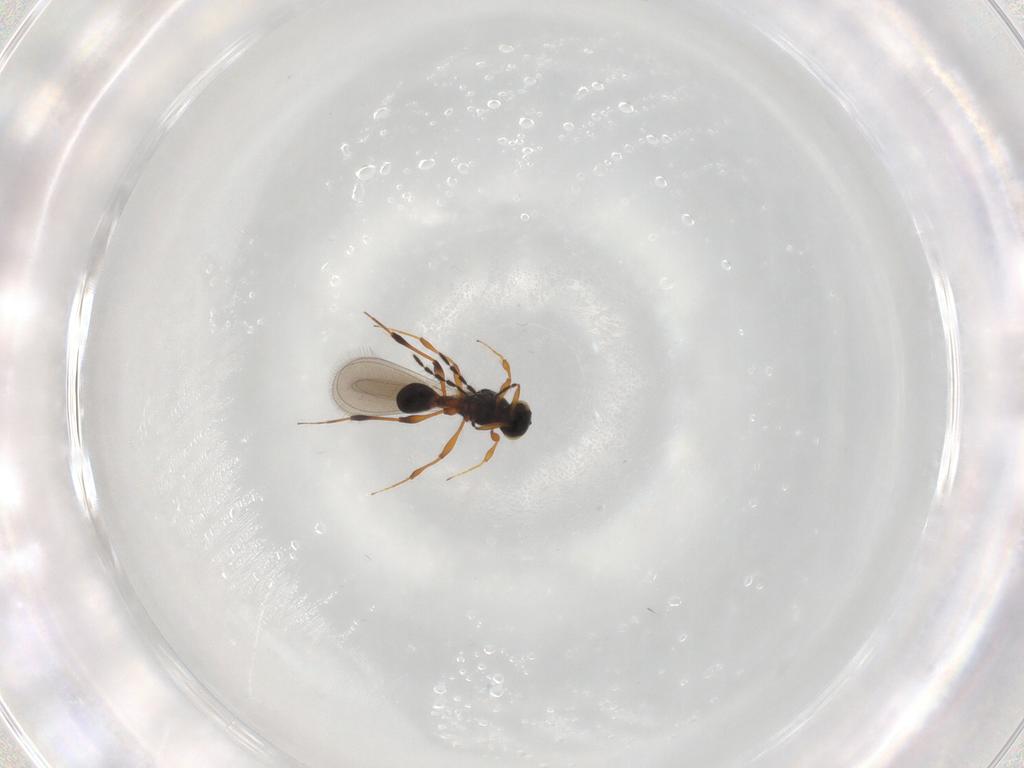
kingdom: Animalia
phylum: Arthropoda
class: Insecta
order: Hymenoptera
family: Platygastridae
